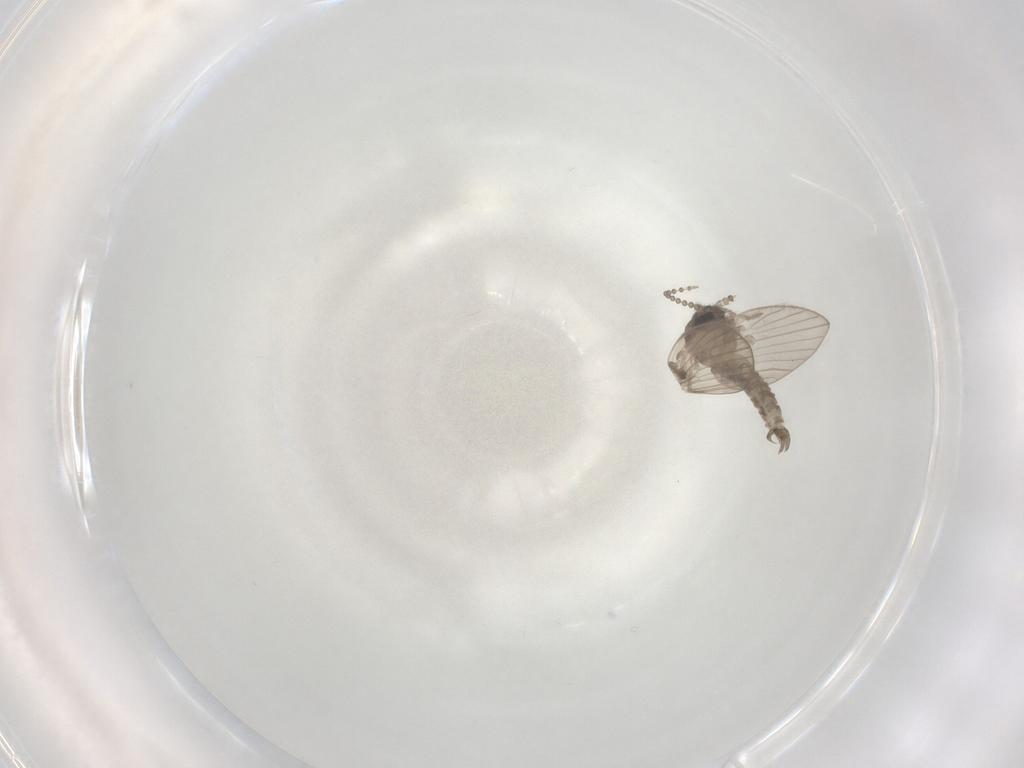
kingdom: Animalia
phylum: Arthropoda
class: Insecta
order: Diptera
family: Psychodidae
